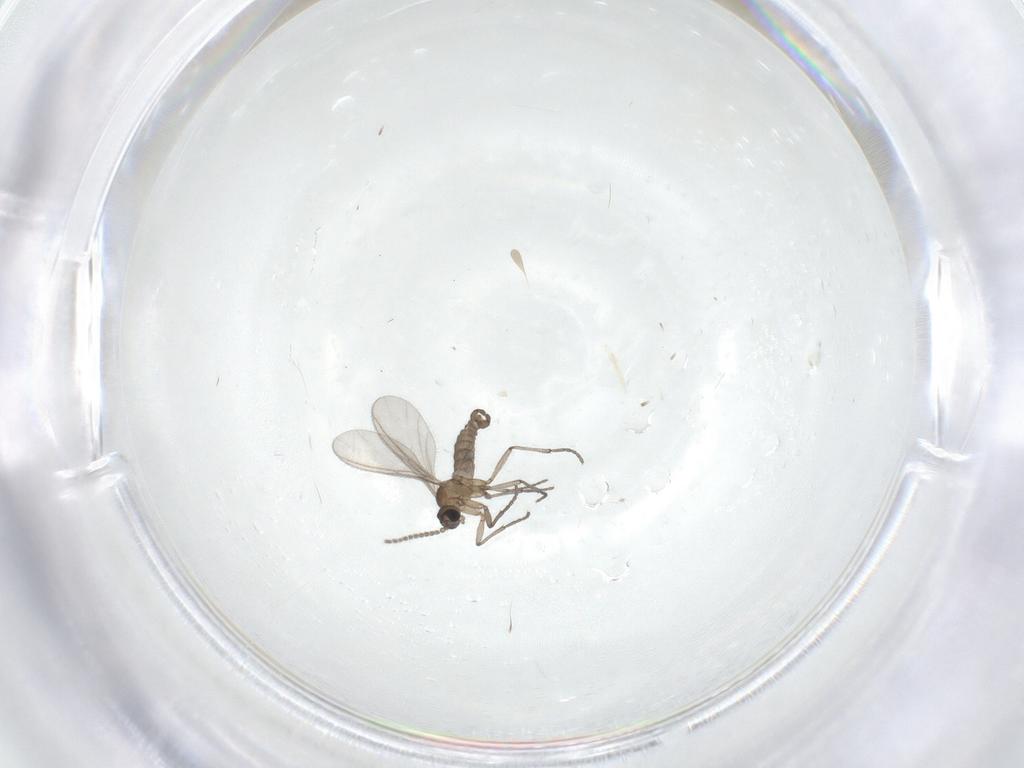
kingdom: Animalia
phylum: Arthropoda
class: Insecta
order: Diptera
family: Sciaridae
